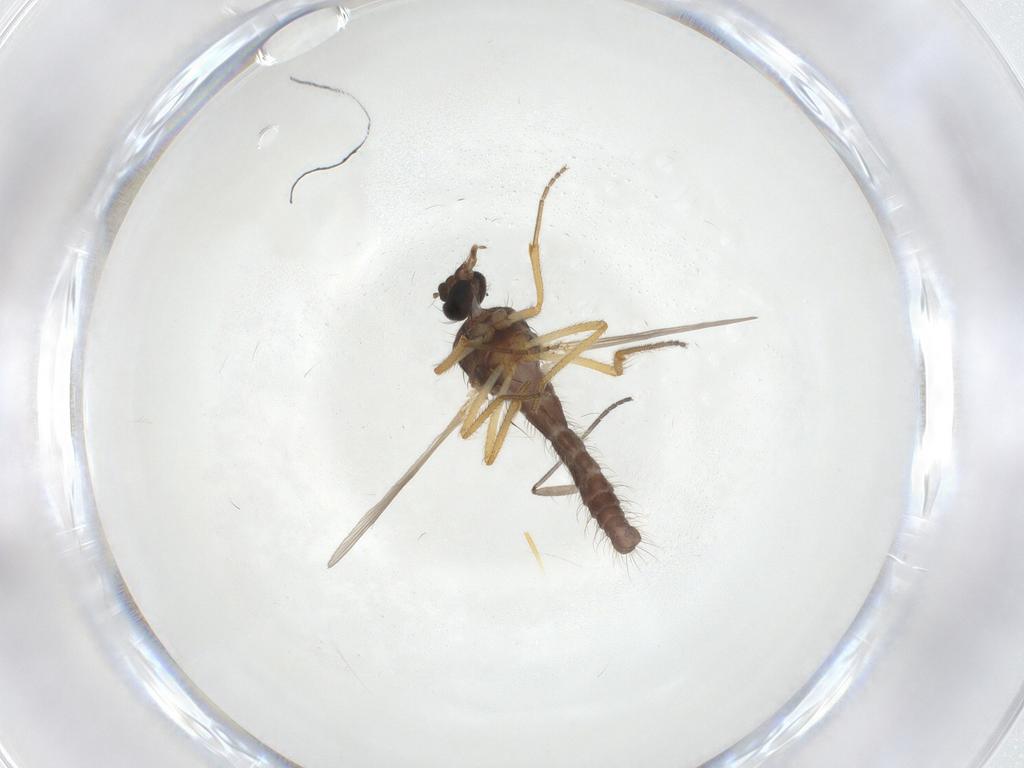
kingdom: Animalia
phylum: Arthropoda
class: Insecta
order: Diptera
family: Ceratopogonidae
